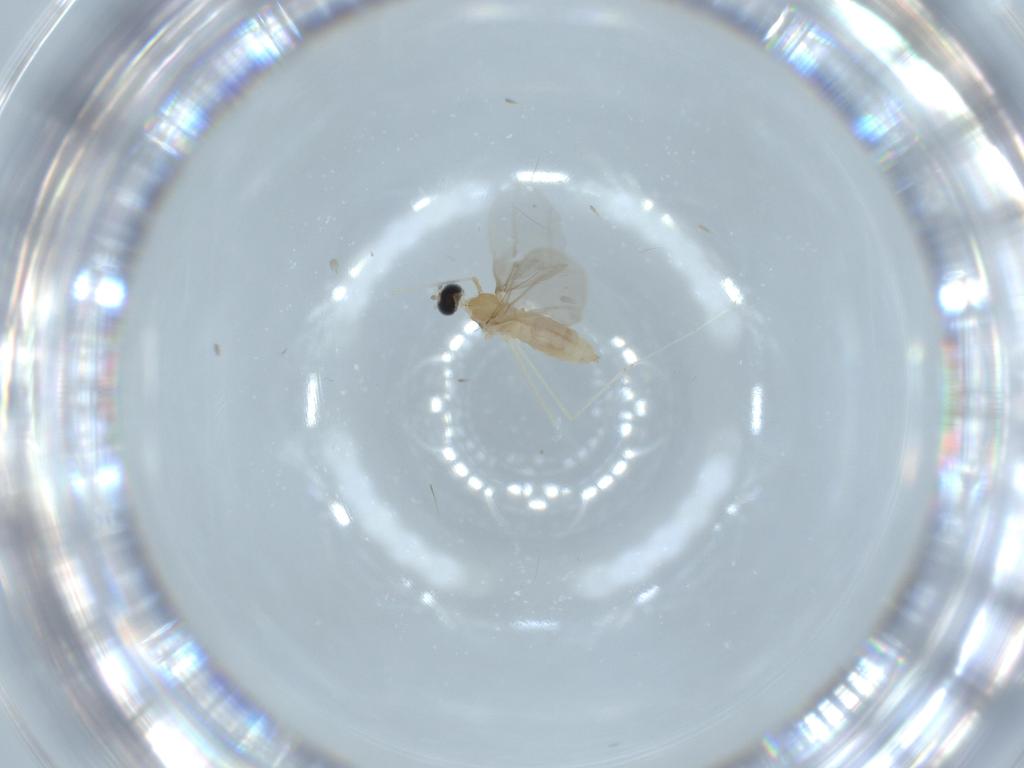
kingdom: Animalia
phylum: Arthropoda
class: Insecta
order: Diptera
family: Cecidomyiidae
